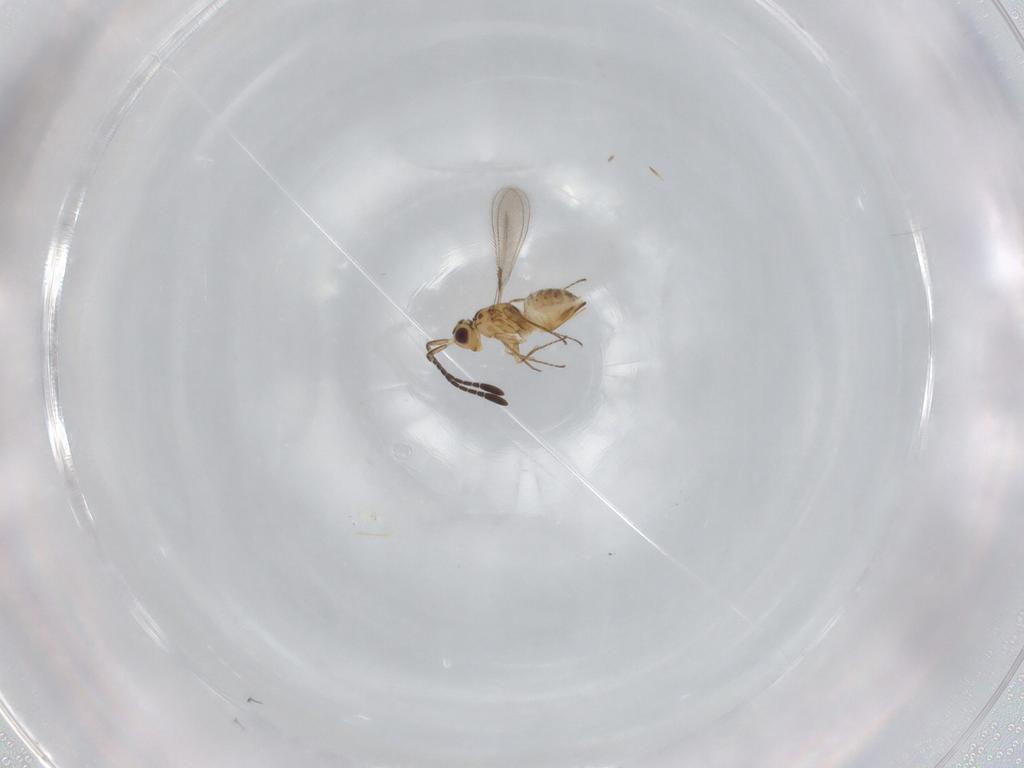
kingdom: Animalia
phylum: Arthropoda
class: Insecta
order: Hymenoptera
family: Mymaridae
